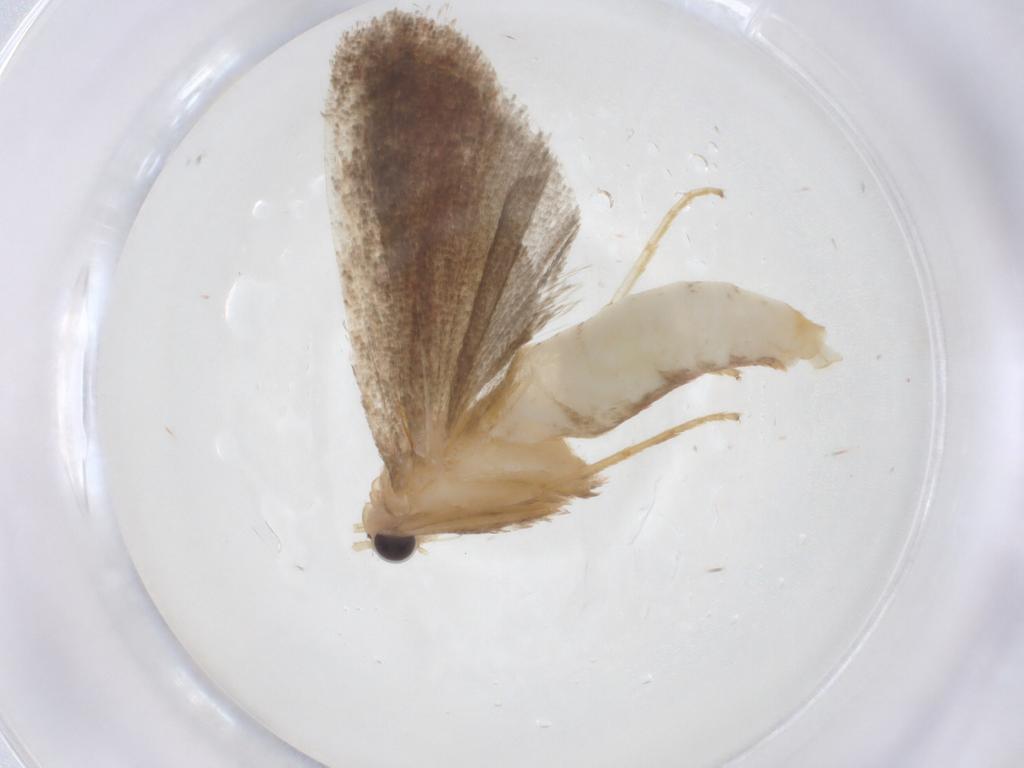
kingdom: Animalia
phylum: Arthropoda
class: Insecta
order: Lepidoptera
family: Pyralidae
